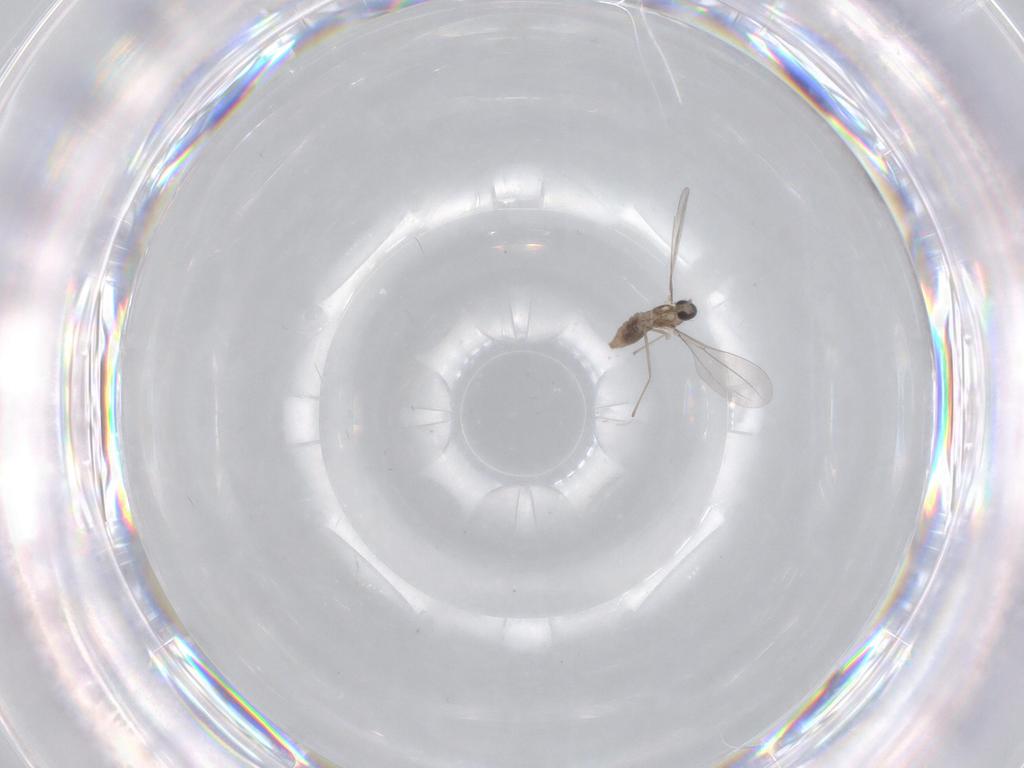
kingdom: Animalia
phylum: Arthropoda
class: Insecta
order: Diptera
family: Cecidomyiidae
